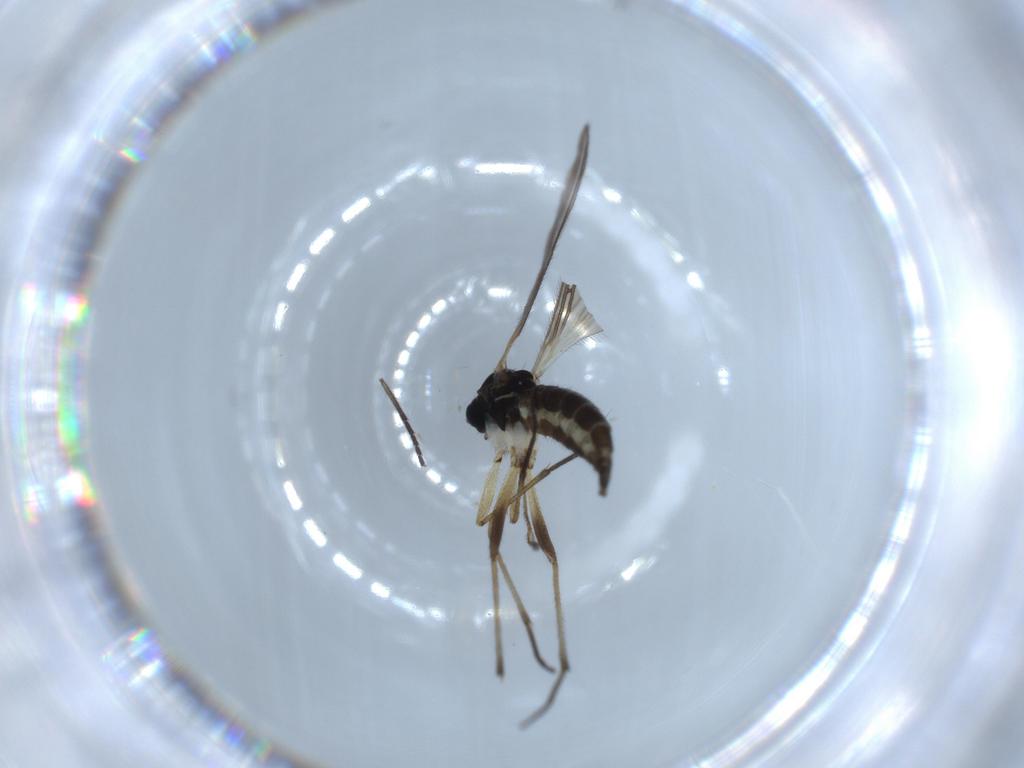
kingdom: Animalia
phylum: Arthropoda
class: Insecta
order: Diptera
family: Sciaridae
